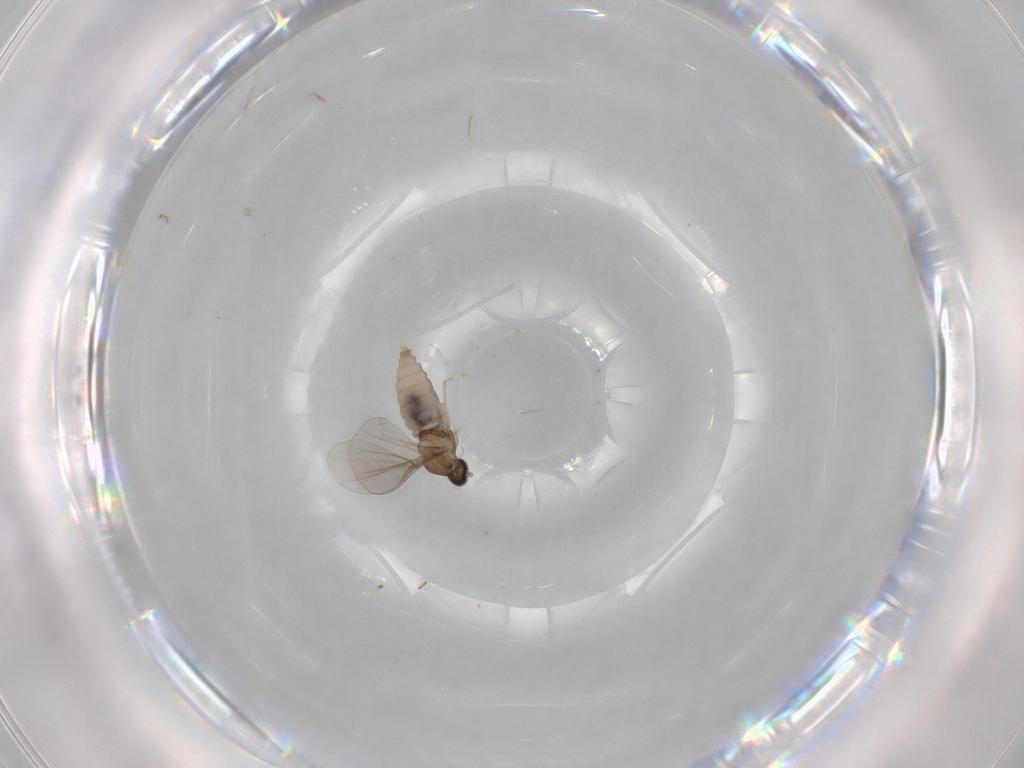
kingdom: Animalia
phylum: Arthropoda
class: Insecta
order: Diptera
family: Cecidomyiidae
